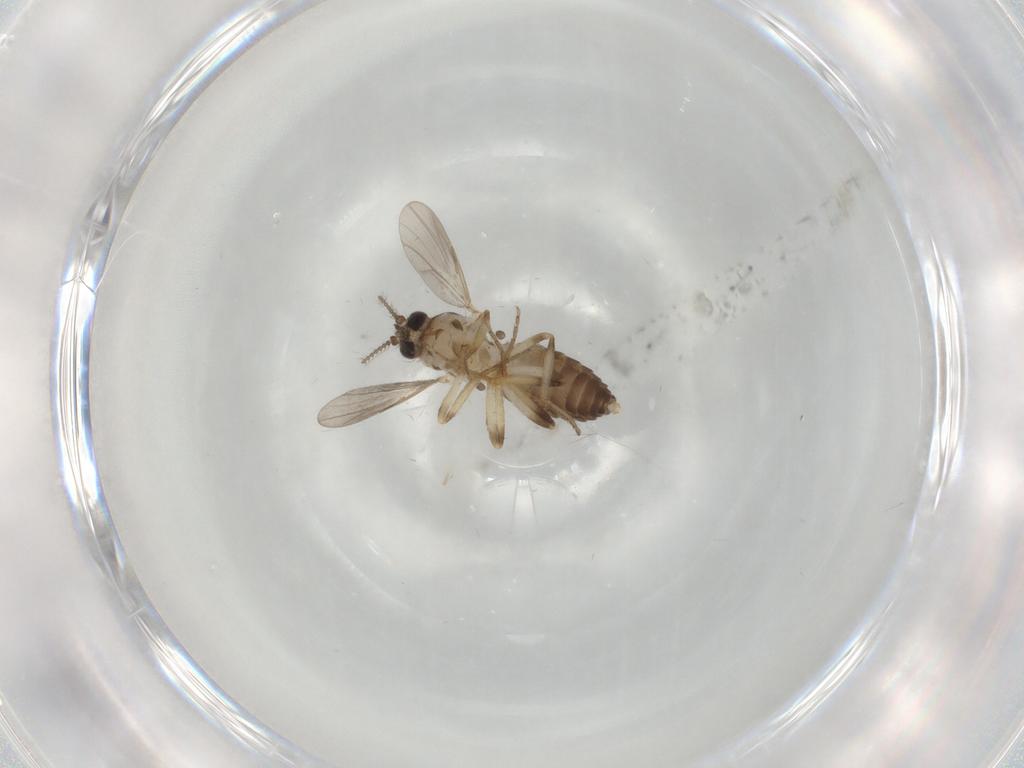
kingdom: Animalia
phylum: Arthropoda
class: Insecta
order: Diptera
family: Ceratopogonidae
